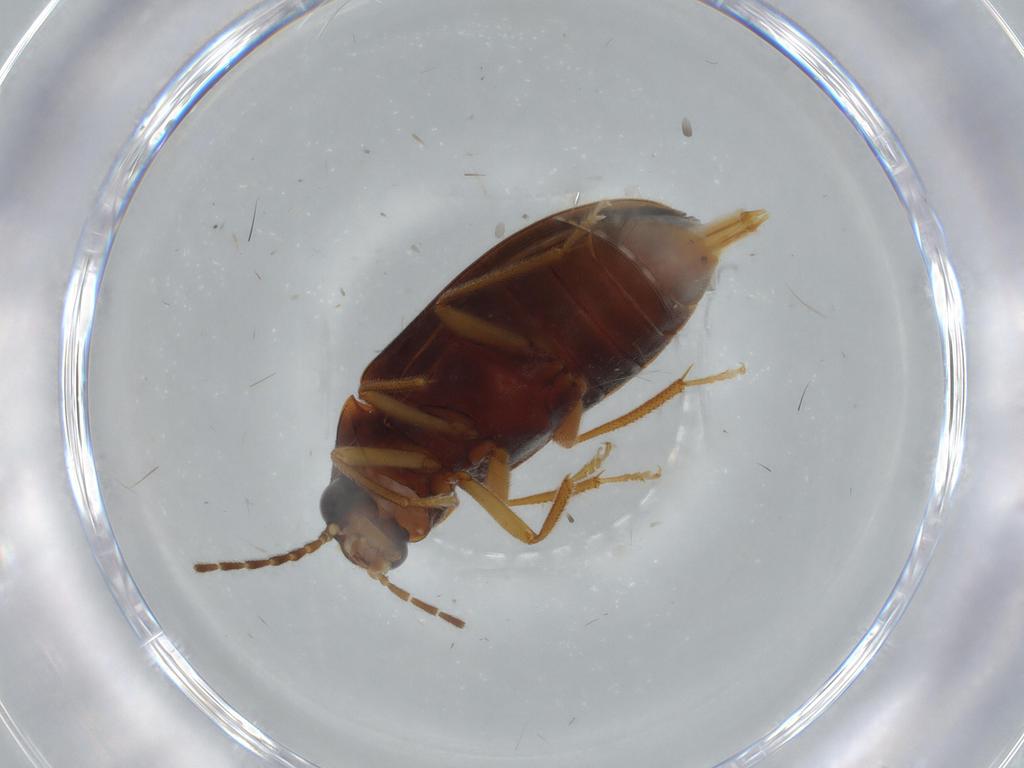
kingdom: Animalia
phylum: Arthropoda
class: Insecta
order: Coleoptera
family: Ptilodactylidae
